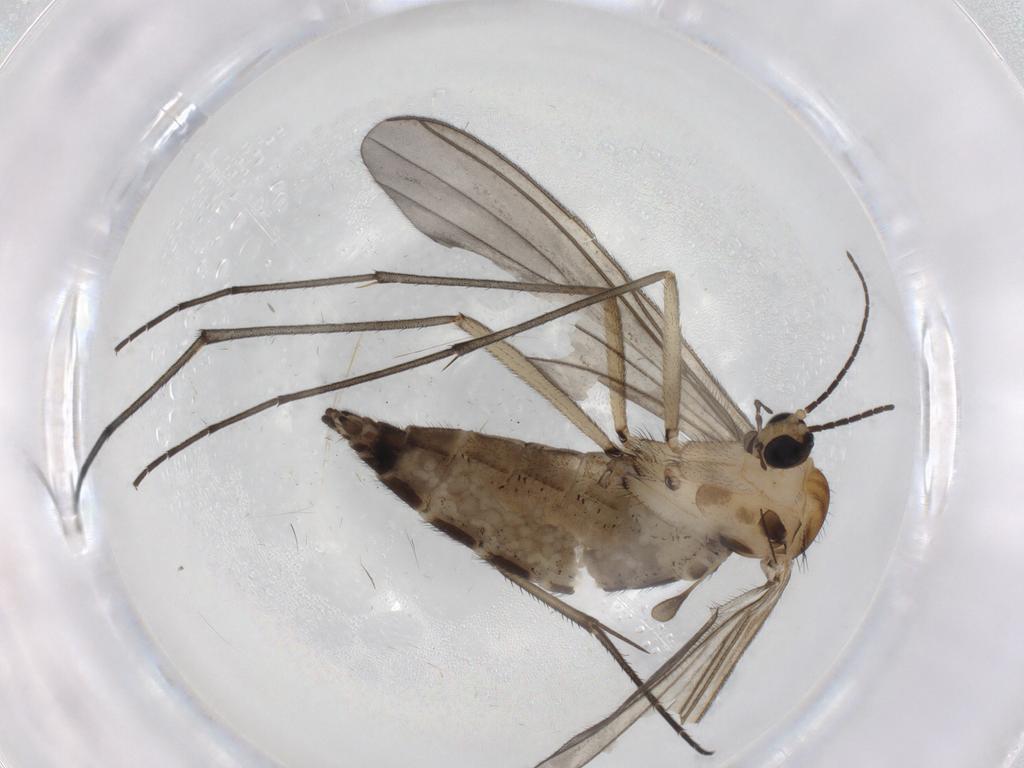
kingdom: Animalia
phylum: Arthropoda
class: Insecta
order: Diptera
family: Sciaridae
